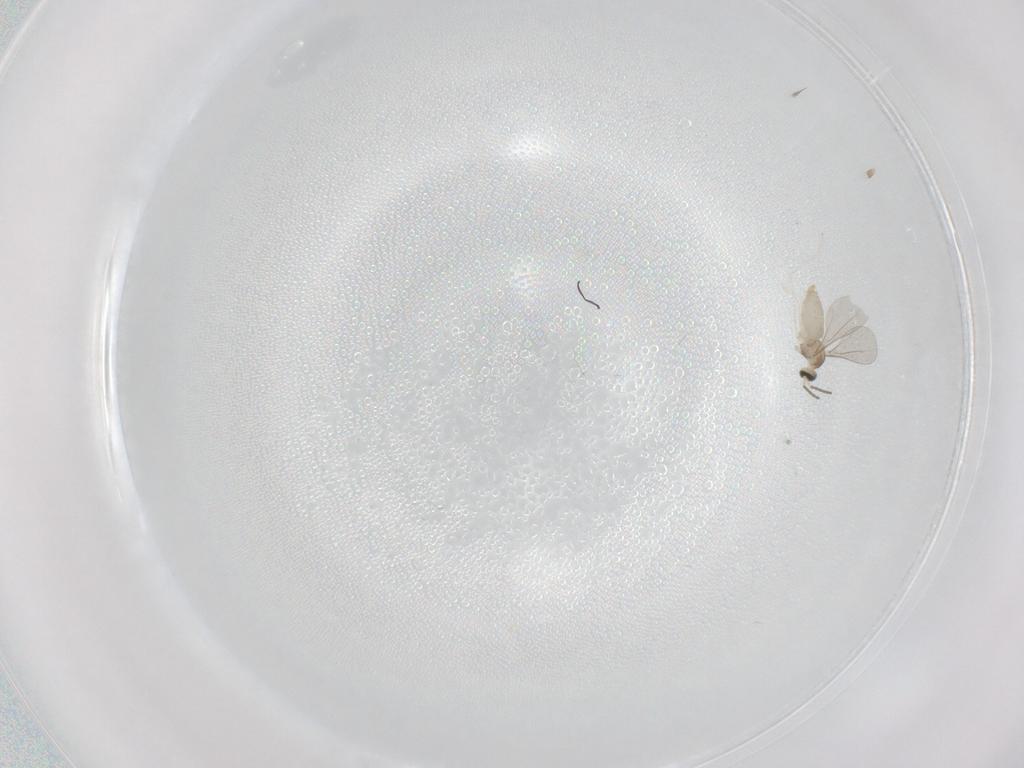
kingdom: Animalia
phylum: Arthropoda
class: Insecta
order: Diptera
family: Cecidomyiidae
